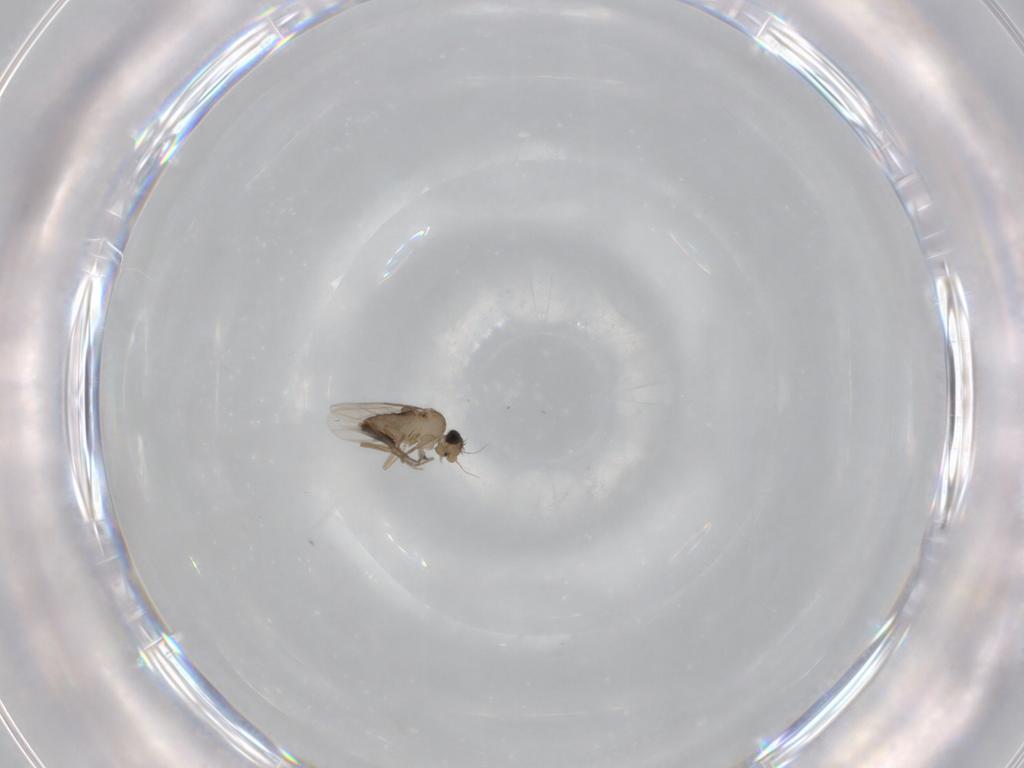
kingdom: Animalia
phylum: Arthropoda
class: Insecta
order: Diptera
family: Phoridae
